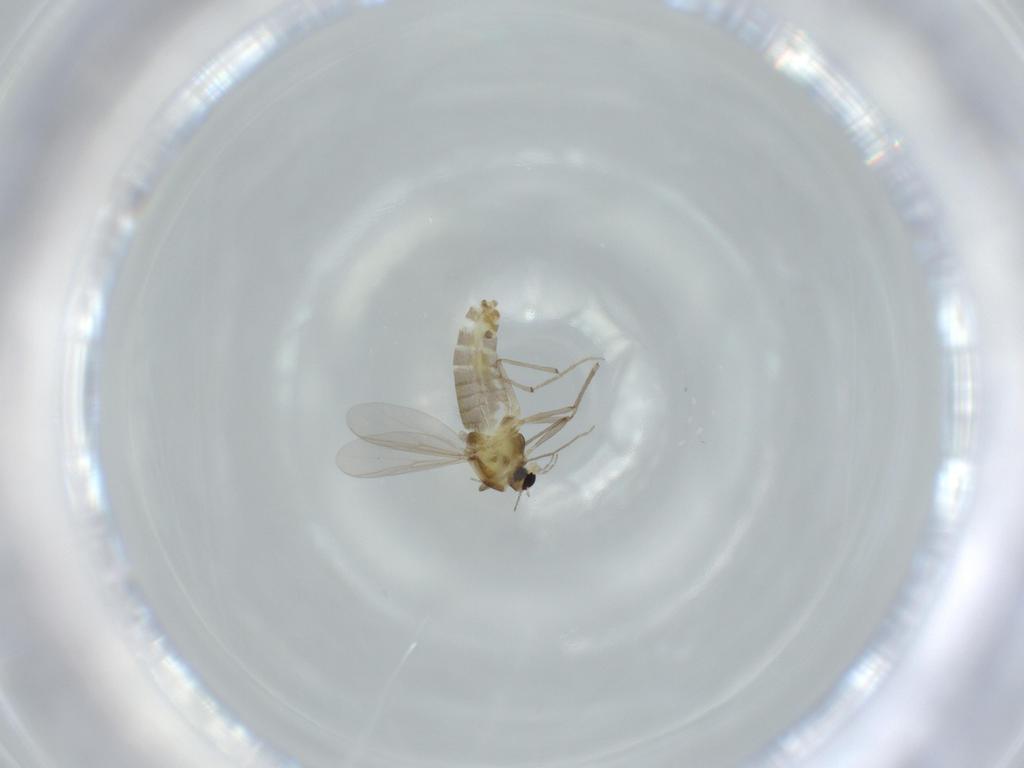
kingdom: Animalia
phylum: Arthropoda
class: Insecta
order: Diptera
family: Chironomidae
